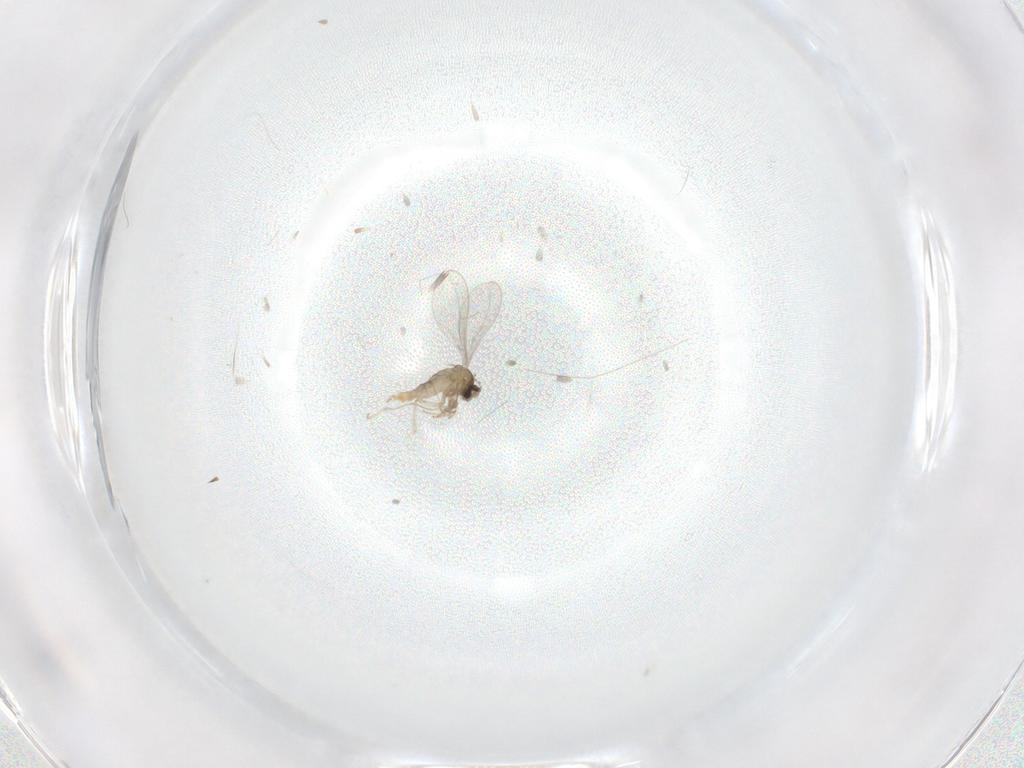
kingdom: Animalia
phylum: Arthropoda
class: Insecta
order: Diptera
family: Cecidomyiidae
